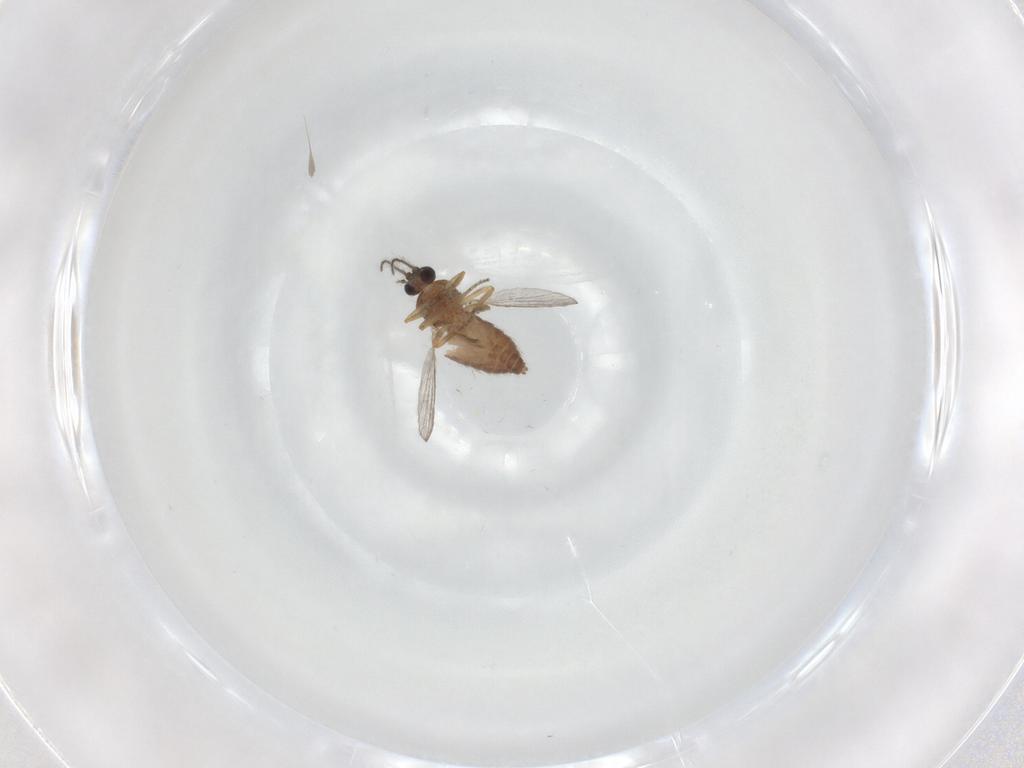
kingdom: Animalia
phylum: Arthropoda
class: Insecta
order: Diptera
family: Ceratopogonidae
